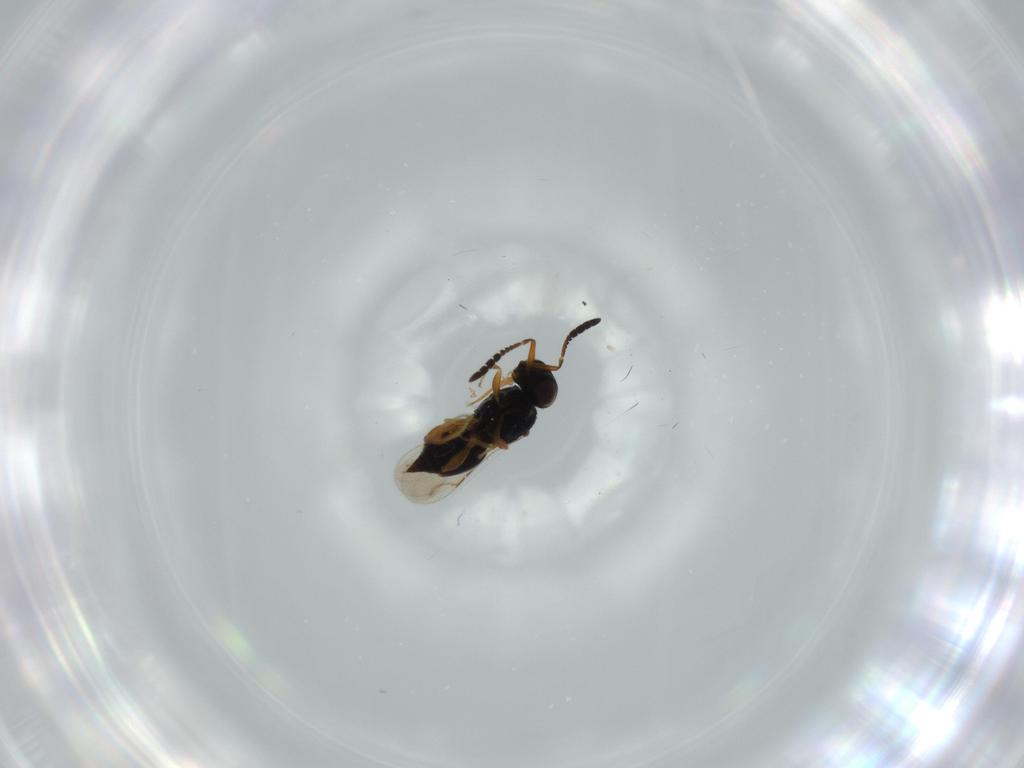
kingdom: Animalia
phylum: Arthropoda
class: Insecta
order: Hymenoptera
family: Ceraphronidae
